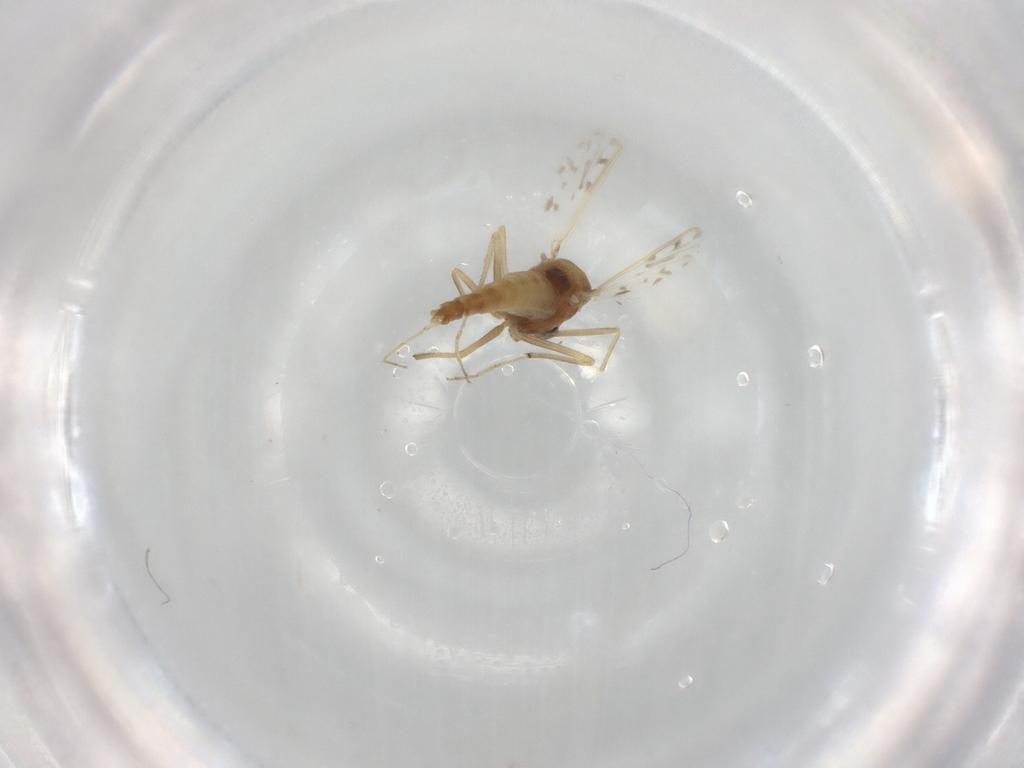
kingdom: Animalia
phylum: Arthropoda
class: Insecta
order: Diptera
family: Chironomidae
